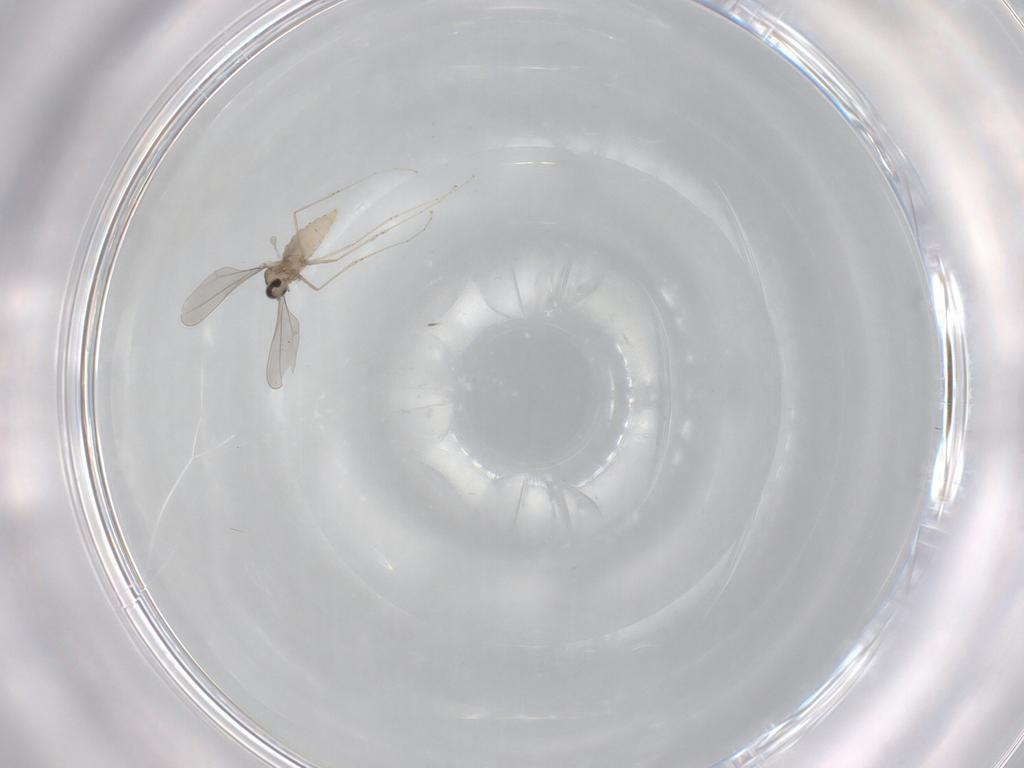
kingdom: Animalia
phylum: Arthropoda
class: Insecta
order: Diptera
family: Cecidomyiidae
